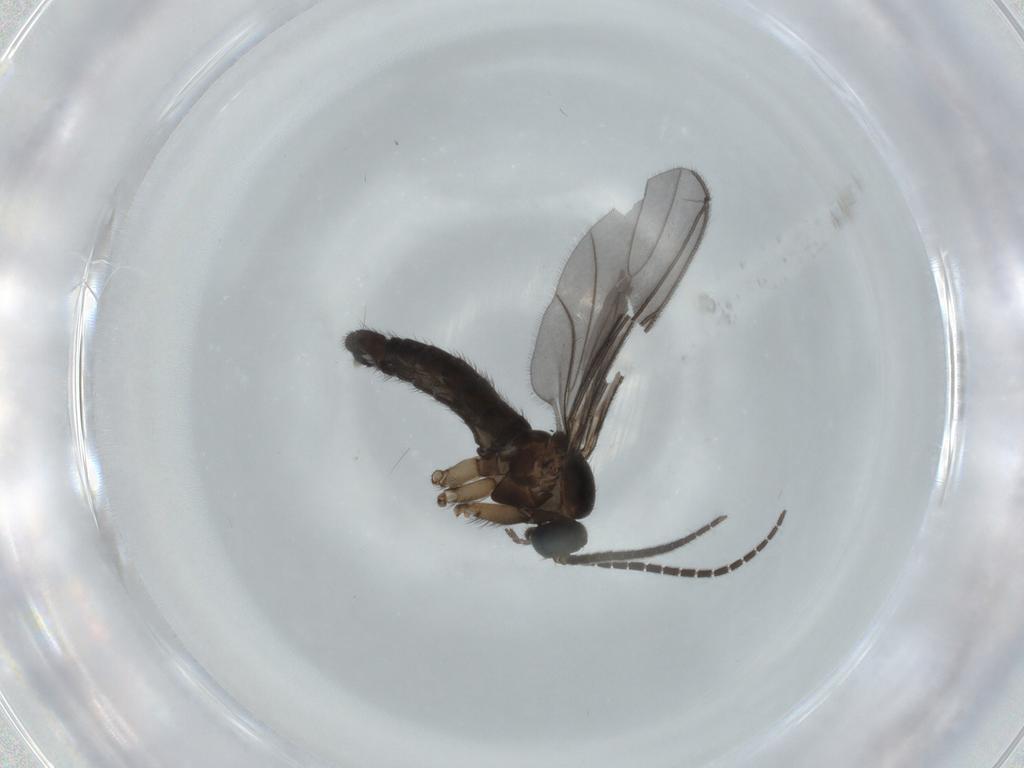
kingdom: Animalia
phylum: Arthropoda
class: Insecta
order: Diptera
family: Sciaridae
